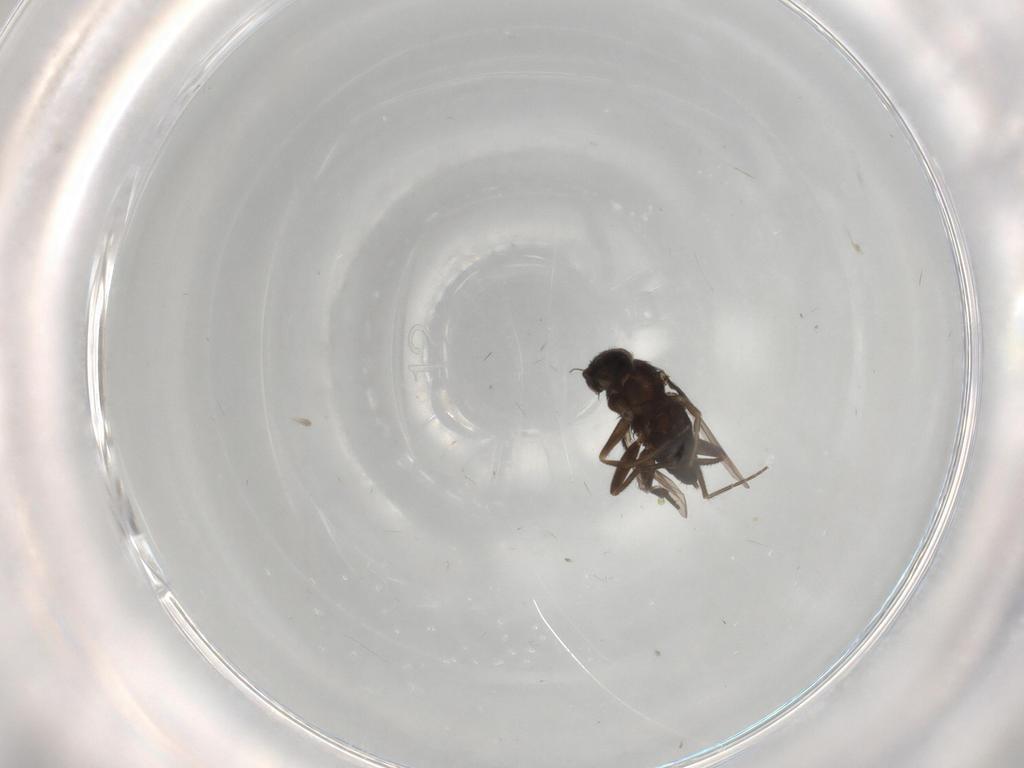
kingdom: Animalia
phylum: Arthropoda
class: Insecta
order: Diptera
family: Phoridae
